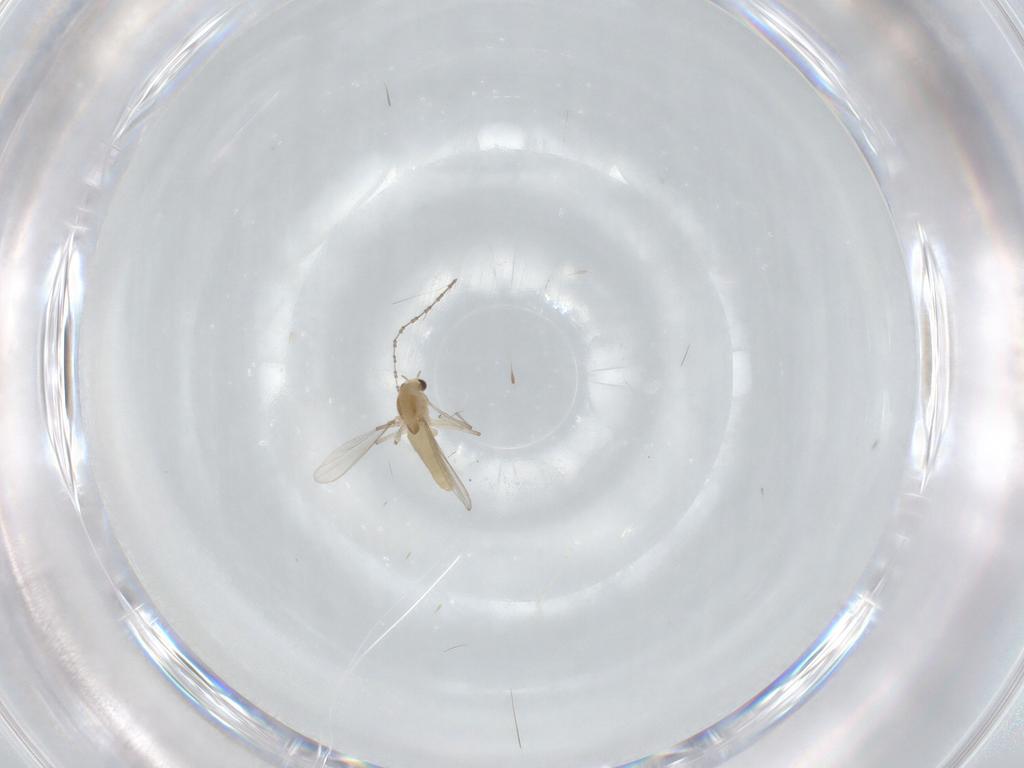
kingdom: Animalia
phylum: Arthropoda
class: Insecta
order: Diptera
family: Chironomidae
